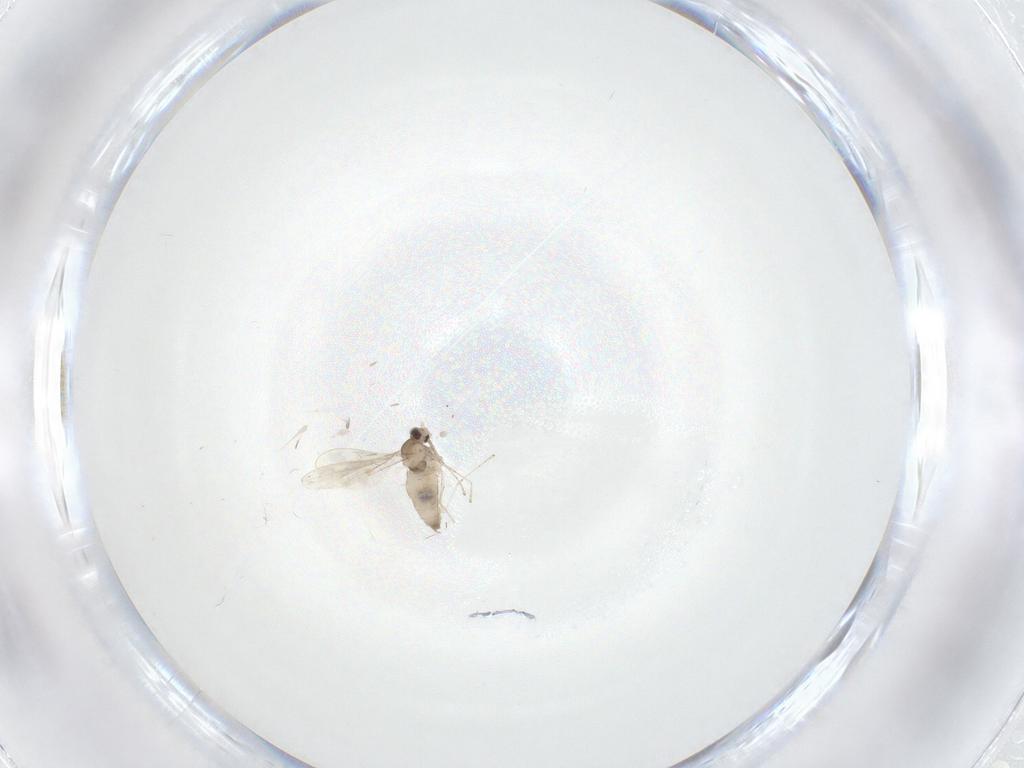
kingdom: Animalia
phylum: Arthropoda
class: Insecta
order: Diptera
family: Cecidomyiidae
